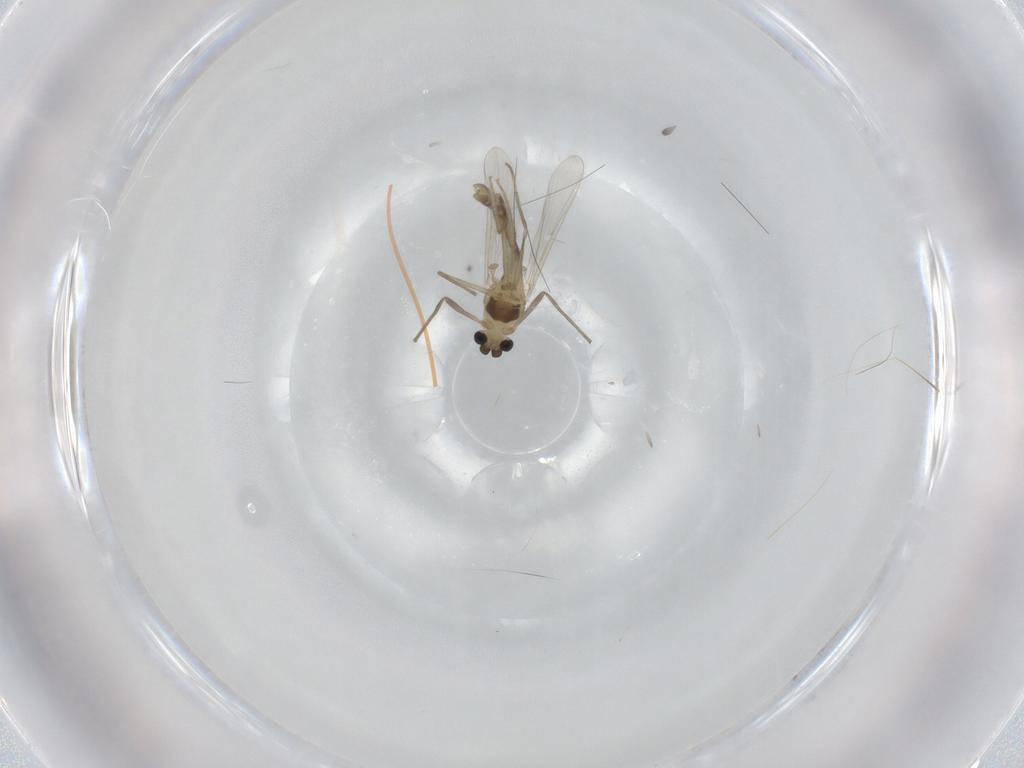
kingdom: Animalia
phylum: Arthropoda
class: Insecta
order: Diptera
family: Chironomidae
